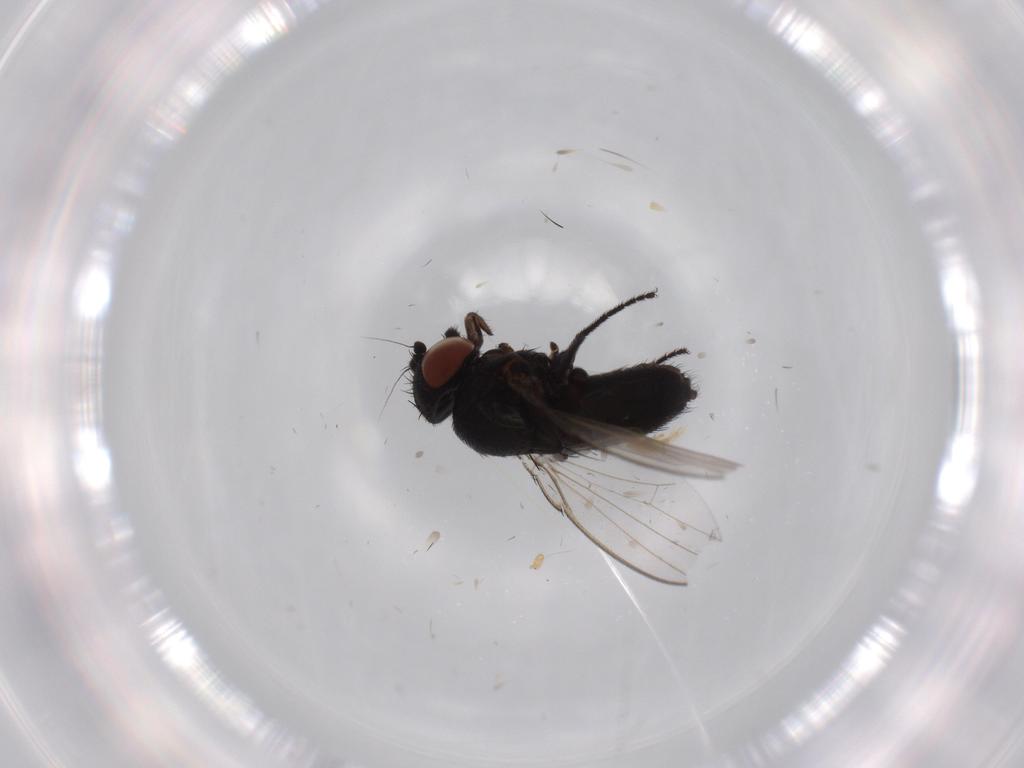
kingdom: Animalia
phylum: Arthropoda
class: Insecta
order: Diptera
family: Milichiidae
